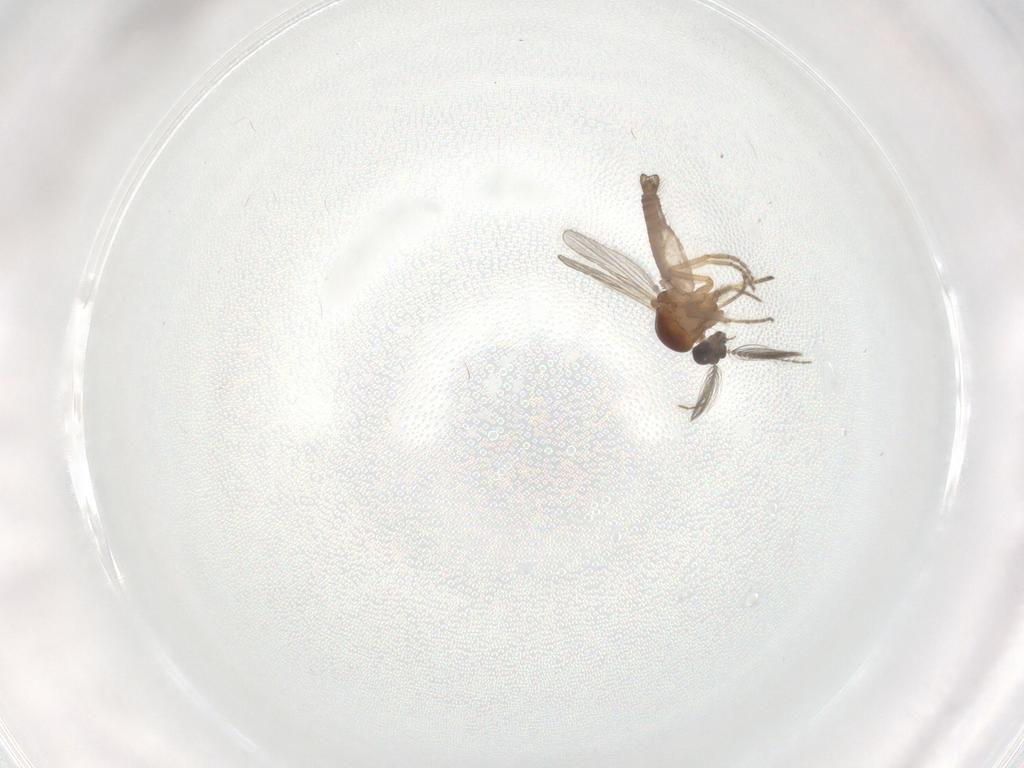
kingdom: Animalia
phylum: Arthropoda
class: Insecta
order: Diptera
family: Ceratopogonidae
